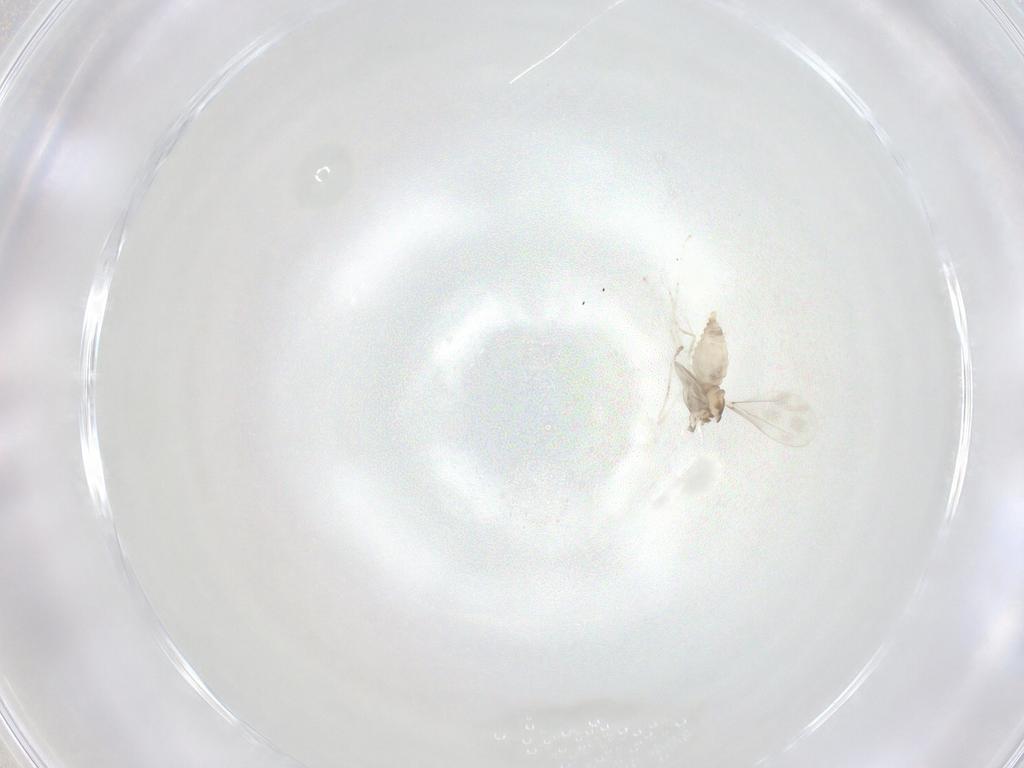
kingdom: Animalia
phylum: Arthropoda
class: Insecta
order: Diptera
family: Cecidomyiidae
